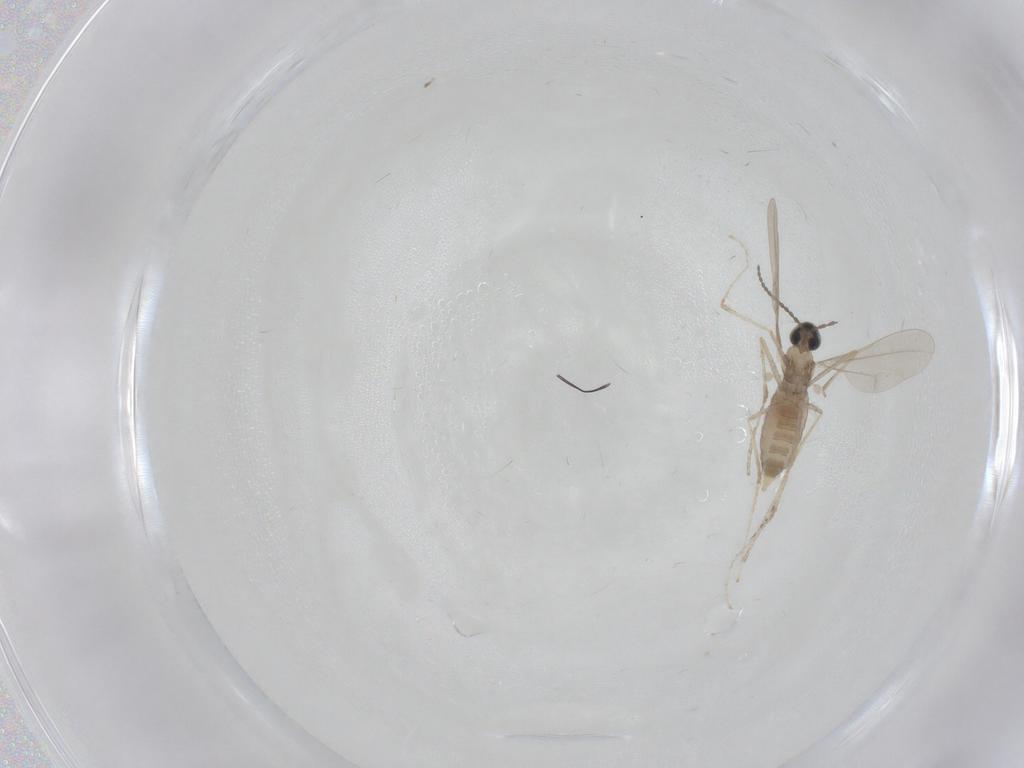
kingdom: Animalia
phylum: Arthropoda
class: Insecta
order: Diptera
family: Cecidomyiidae
